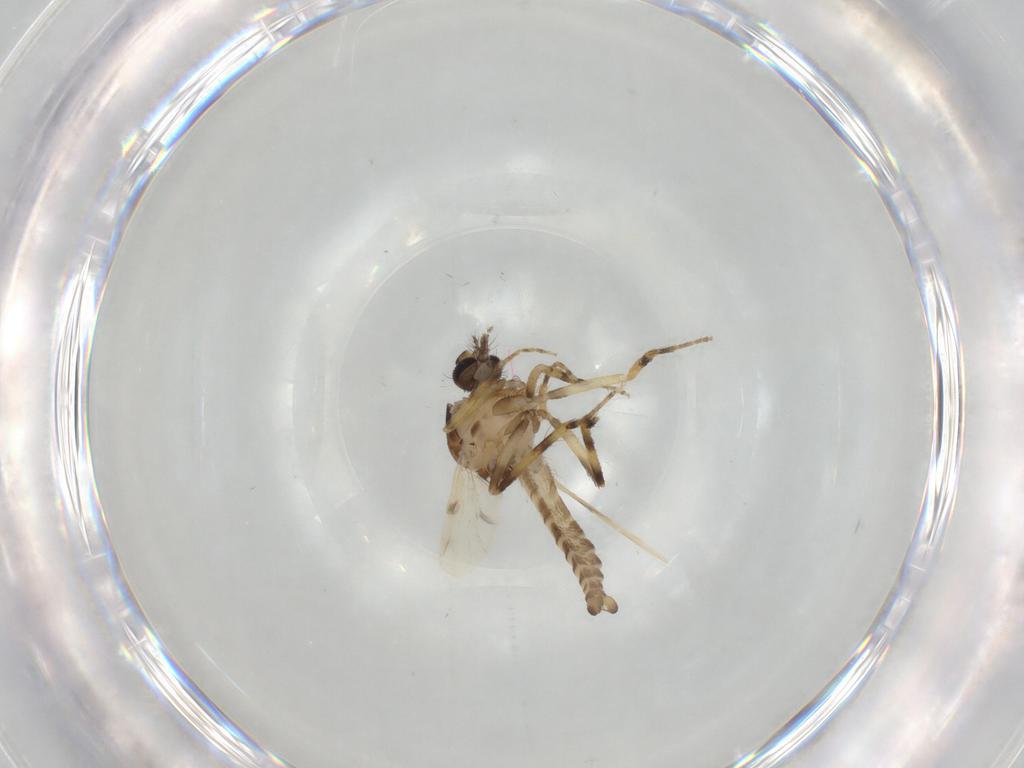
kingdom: Animalia
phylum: Arthropoda
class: Insecta
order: Diptera
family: Ceratopogonidae
